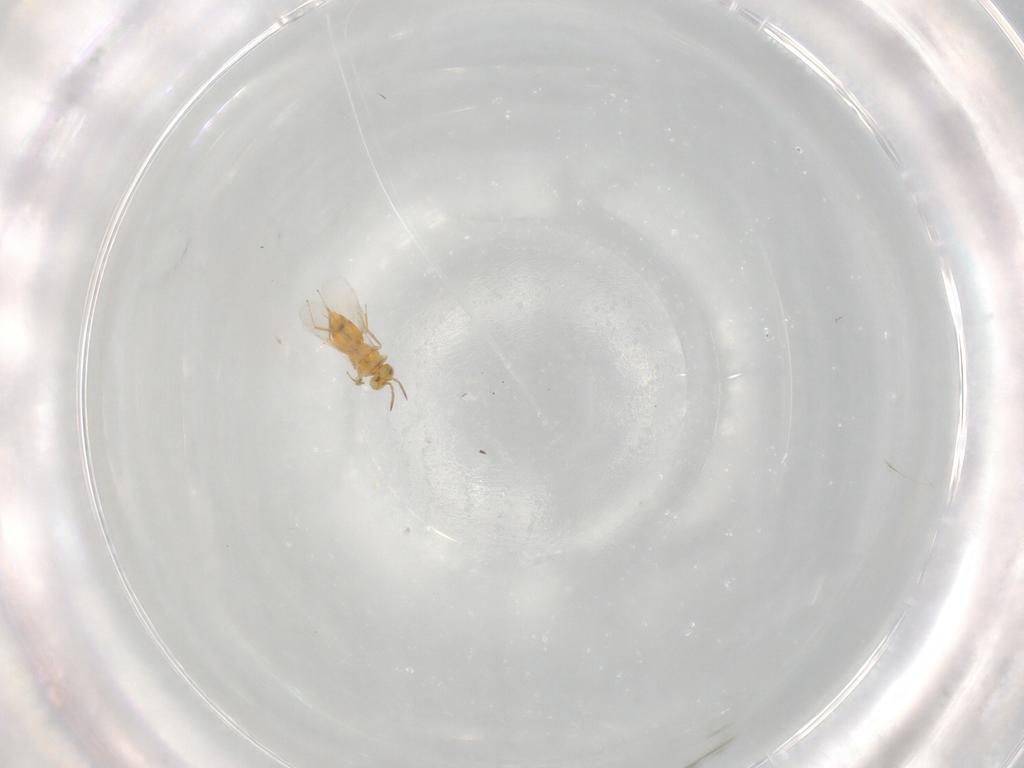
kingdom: Animalia
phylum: Arthropoda
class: Insecta
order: Hymenoptera
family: Aphelinidae
